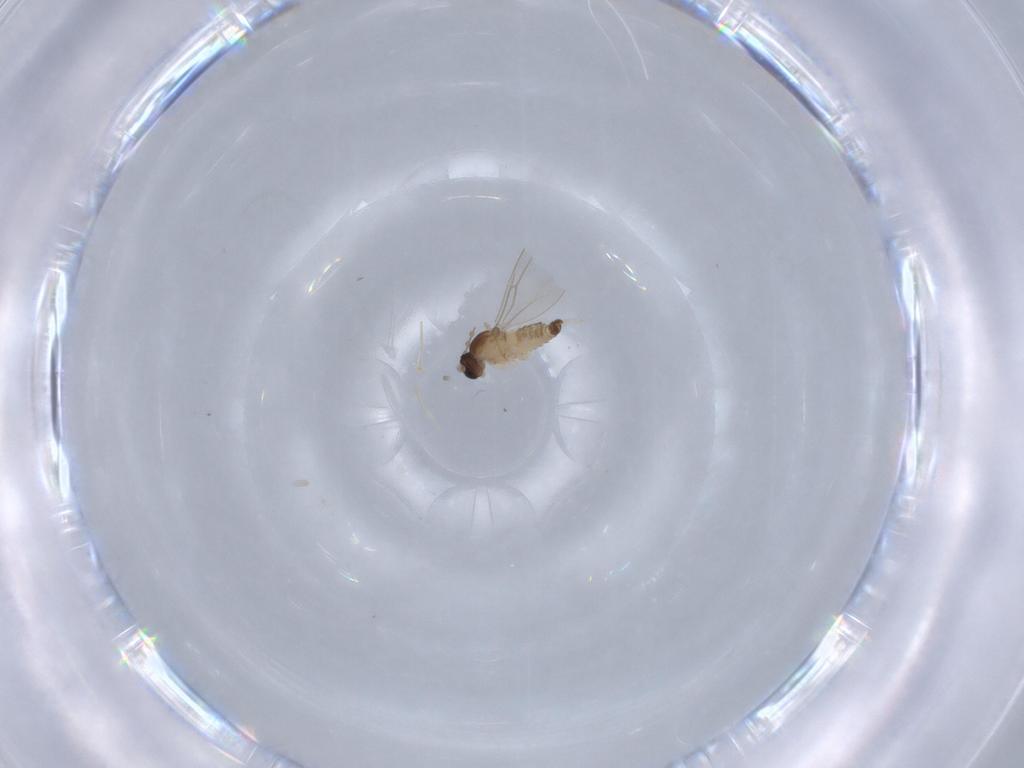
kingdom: Animalia
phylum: Arthropoda
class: Insecta
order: Diptera
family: Cecidomyiidae
